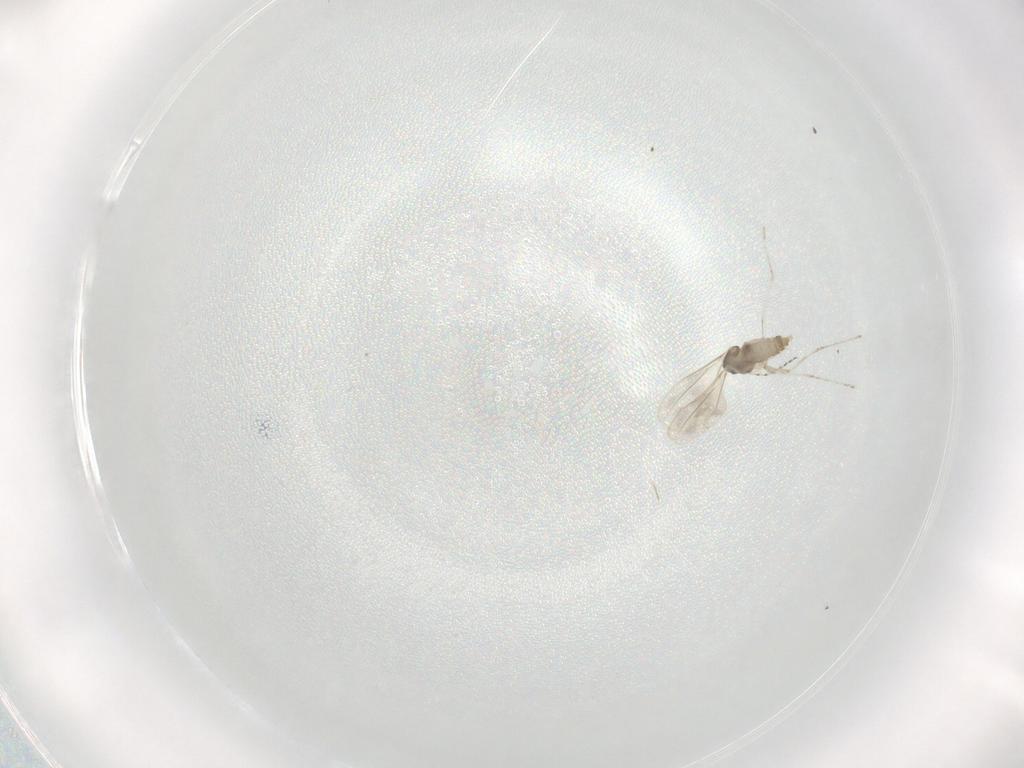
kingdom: Animalia
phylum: Arthropoda
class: Insecta
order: Diptera
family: Cecidomyiidae
